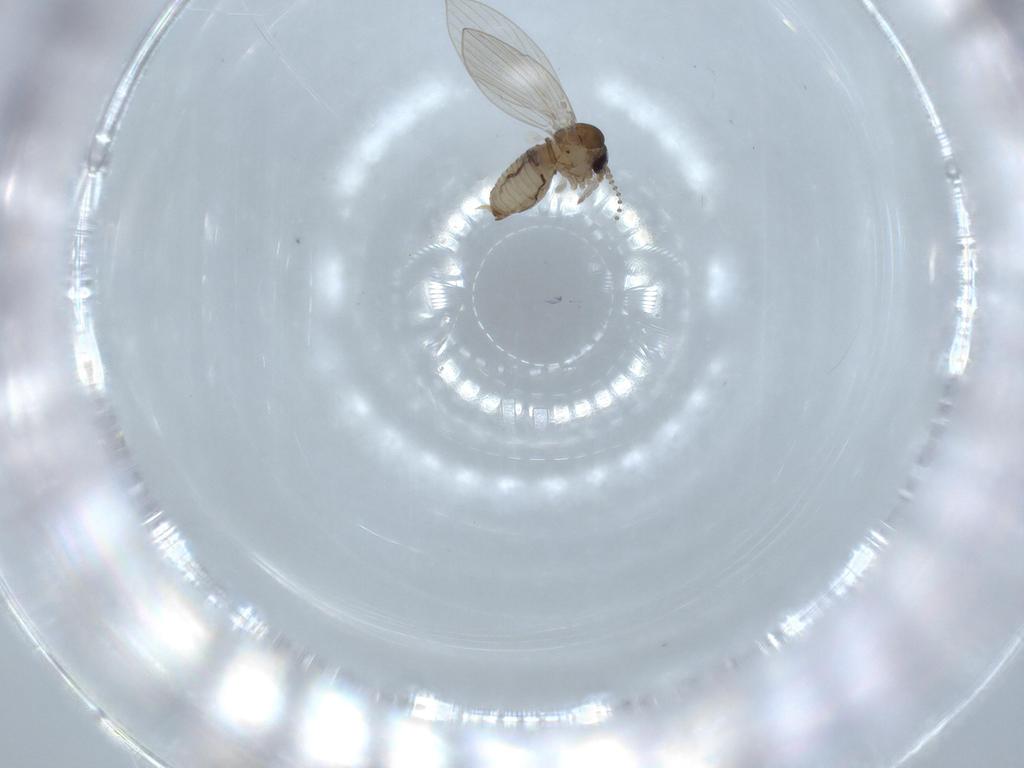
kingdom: Animalia
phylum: Arthropoda
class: Insecta
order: Diptera
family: Psychodidae
